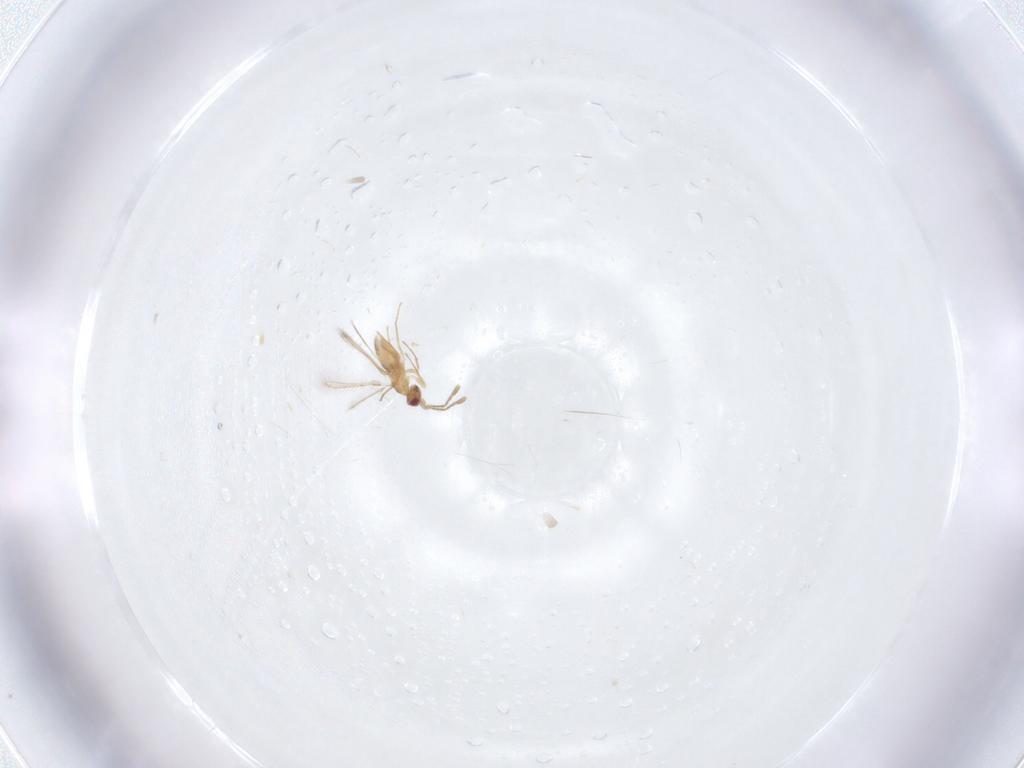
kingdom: Animalia
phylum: Arthropoda
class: Insecta
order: Hymenoptera
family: Mymaridae
